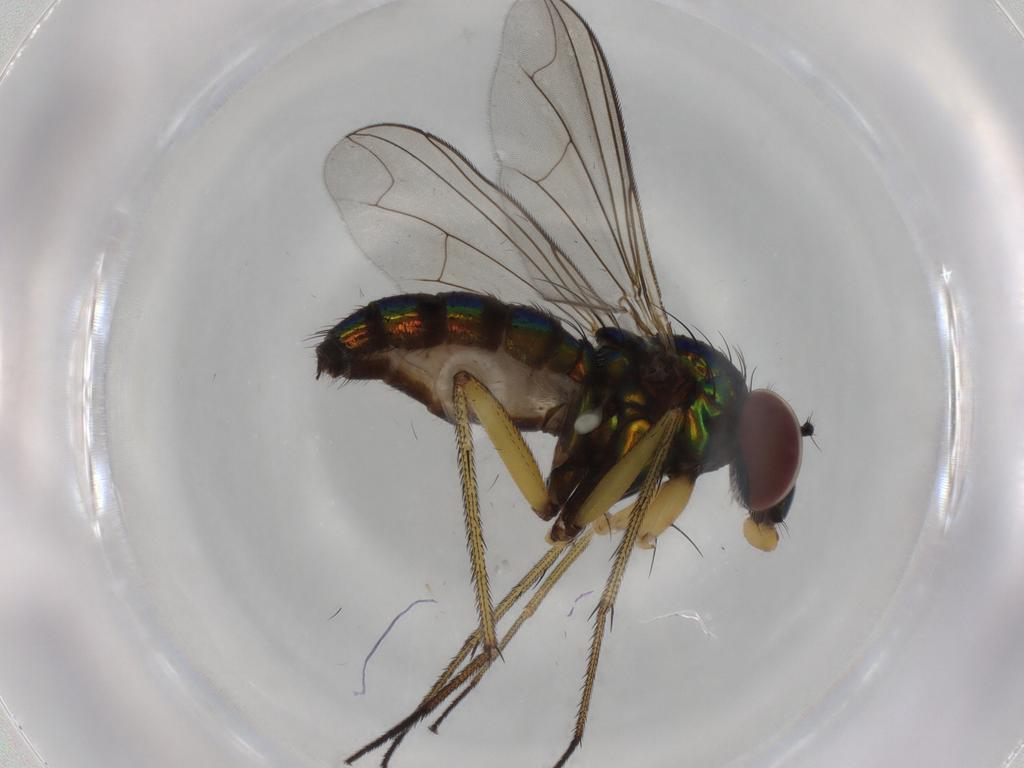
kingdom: Animalia
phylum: Arthropoda
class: Insecta
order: Diptera
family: Dolichopodidae
